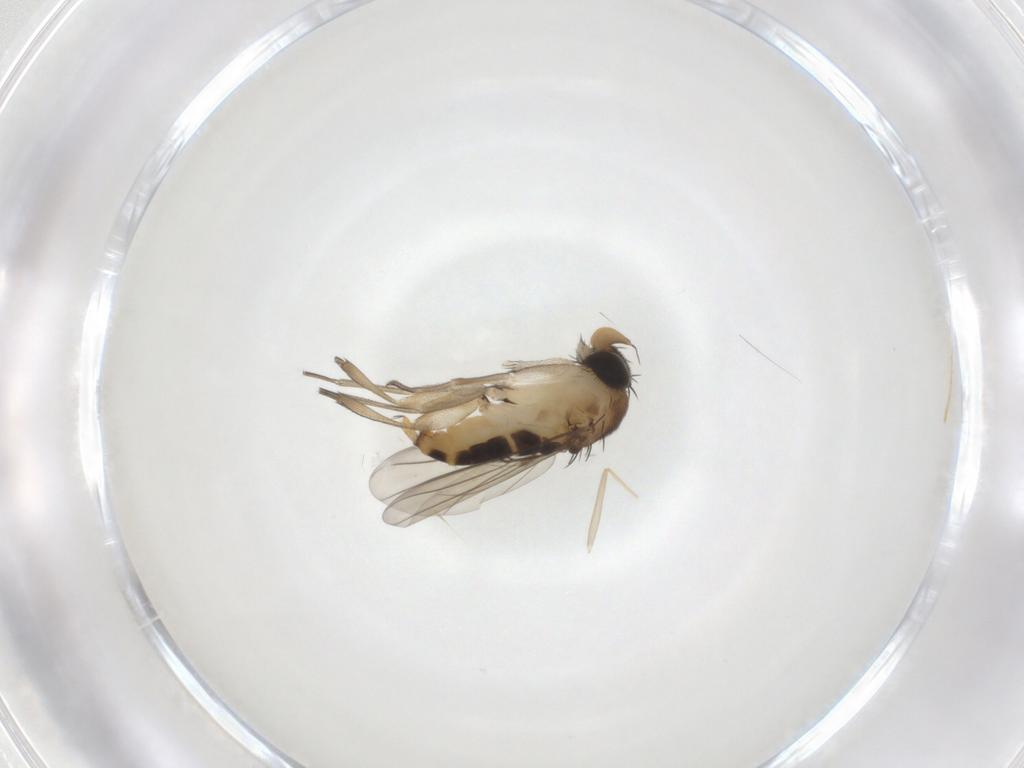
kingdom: Animalia
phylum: Arthropoda
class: Insecta
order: Diptera
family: Phoridae
